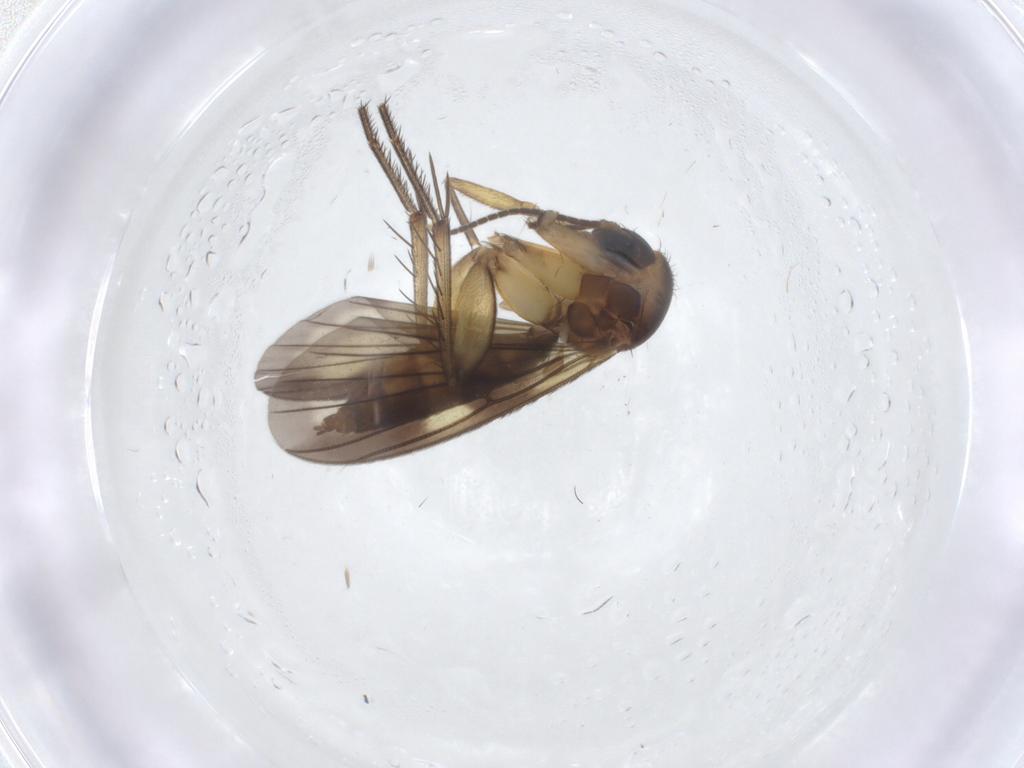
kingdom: Animalia
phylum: Arthropoda
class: Insecta
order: Diptera
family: Mycetophilidae
